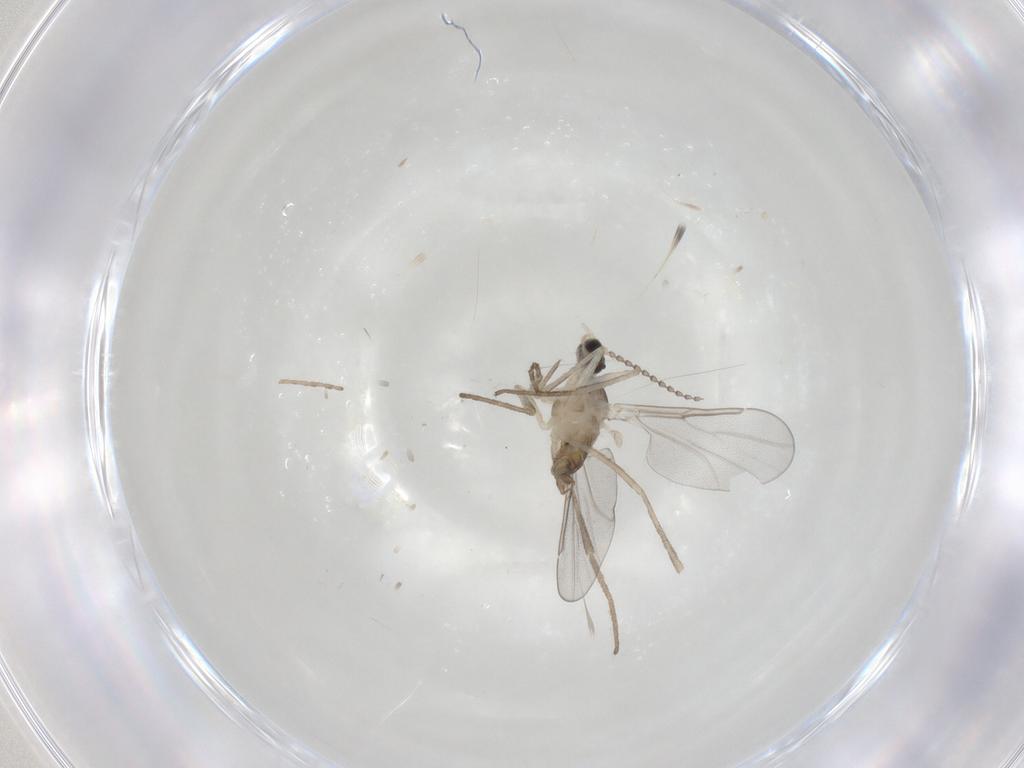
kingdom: Animalia
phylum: Arthropoda
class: Insecta
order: Diptera
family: Cecidomyiidae
